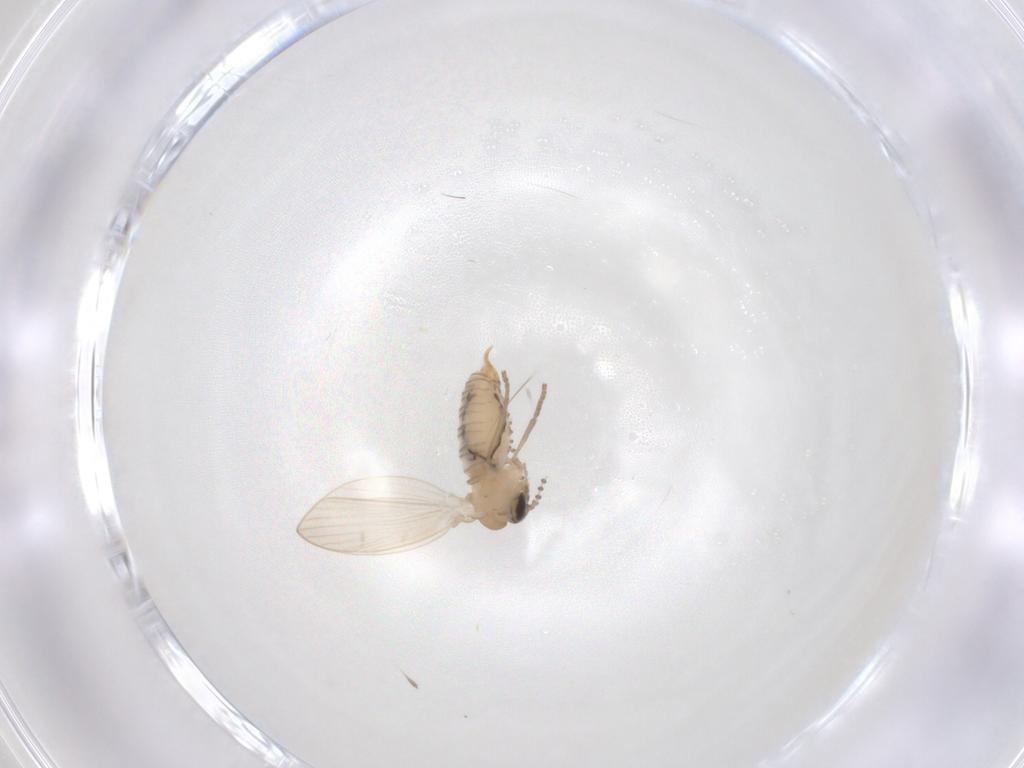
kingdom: Animalia
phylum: Arthropoda
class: Insecta
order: Diptera
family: Psychodidae
